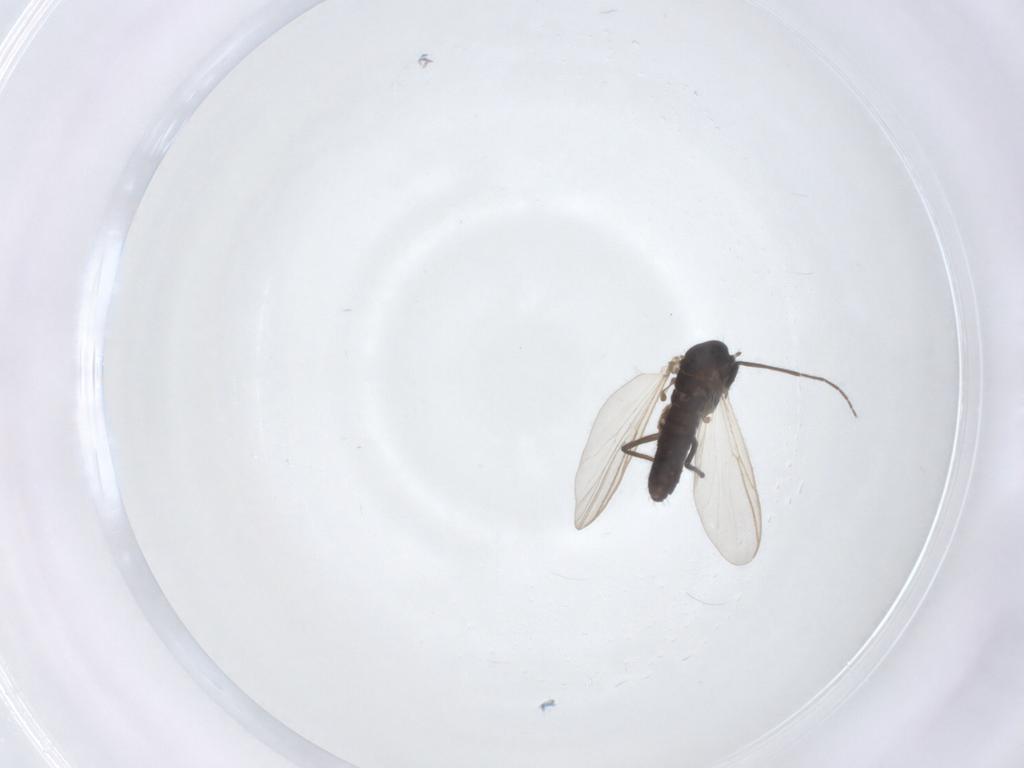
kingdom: Animalia
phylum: Arthropoda
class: Insecta
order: Diptera
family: Chironomidae
